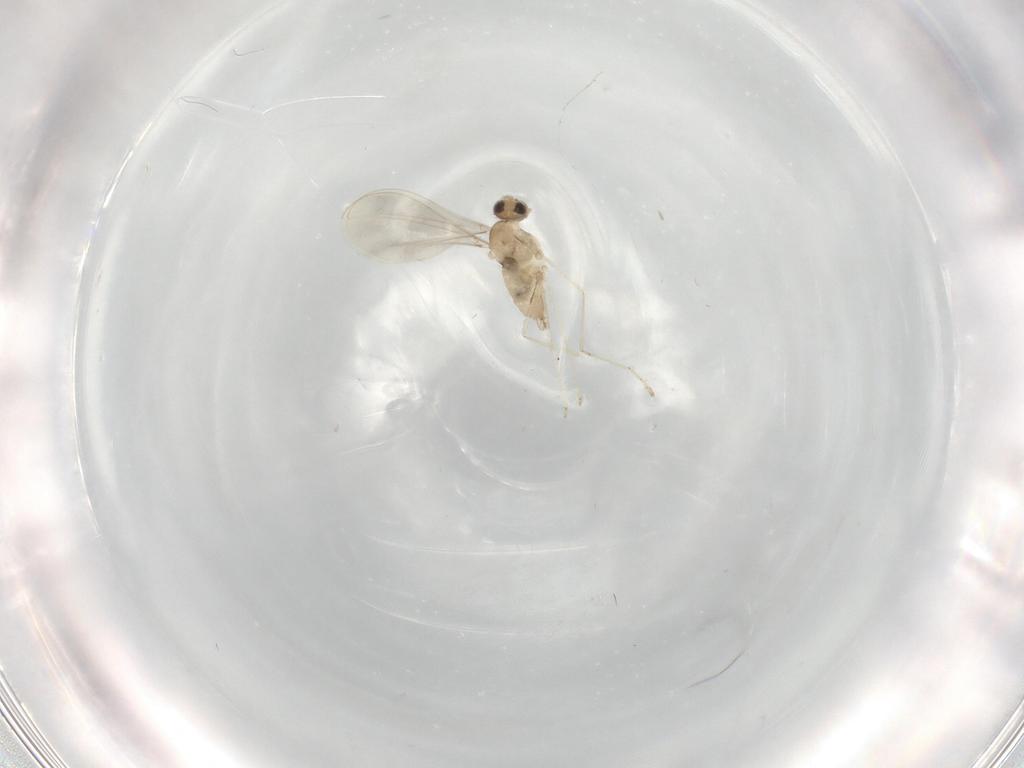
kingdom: Animalia
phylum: Arthropoda
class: Insecta
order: Diptera
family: Cecidomyiidae
